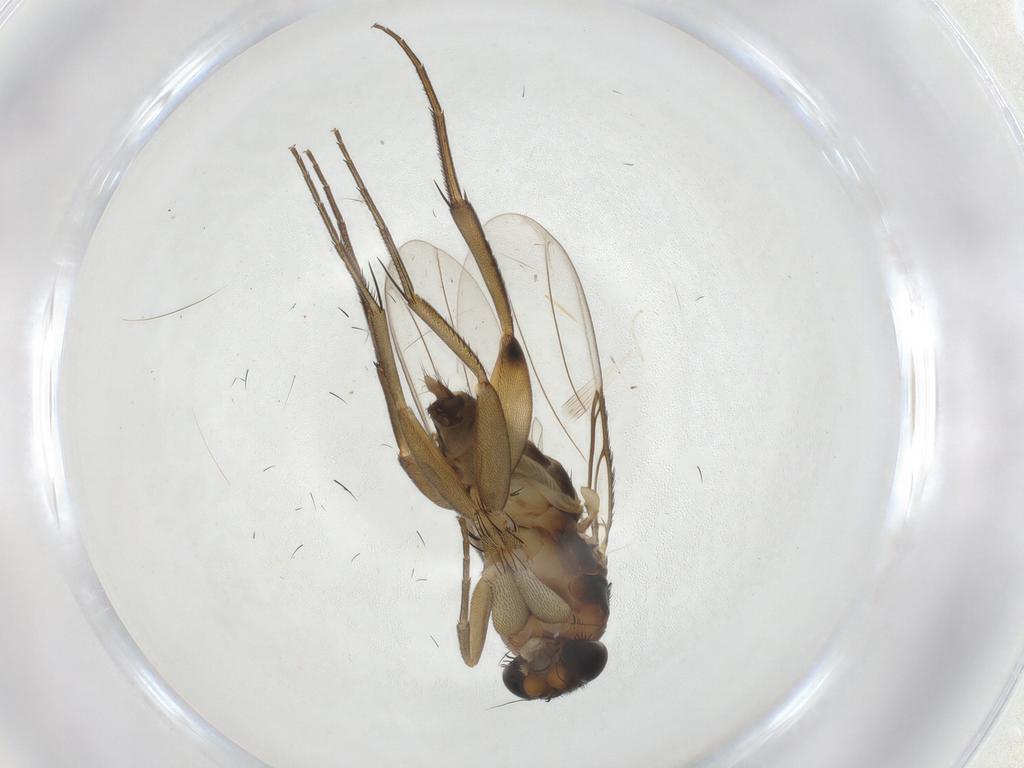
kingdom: Animalia
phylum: Arthropoda
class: Insecta
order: Diptera
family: Phoridae
